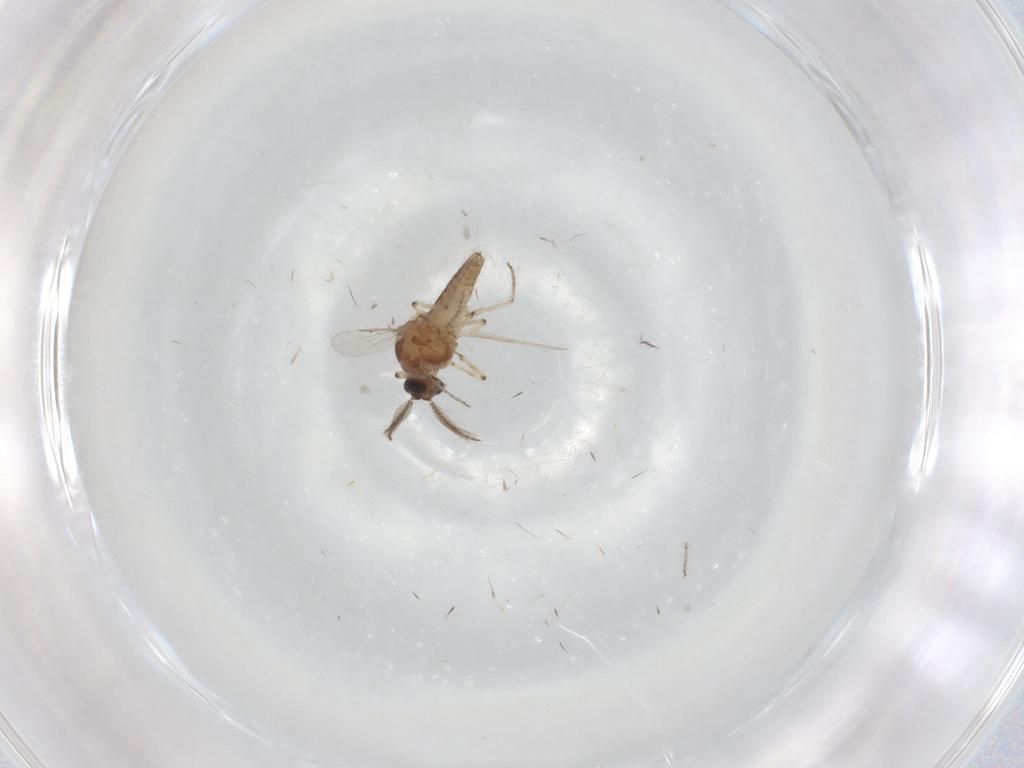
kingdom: Animalia
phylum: Arthropoda
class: Insecta
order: Diptera
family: Ceratopogonidae
